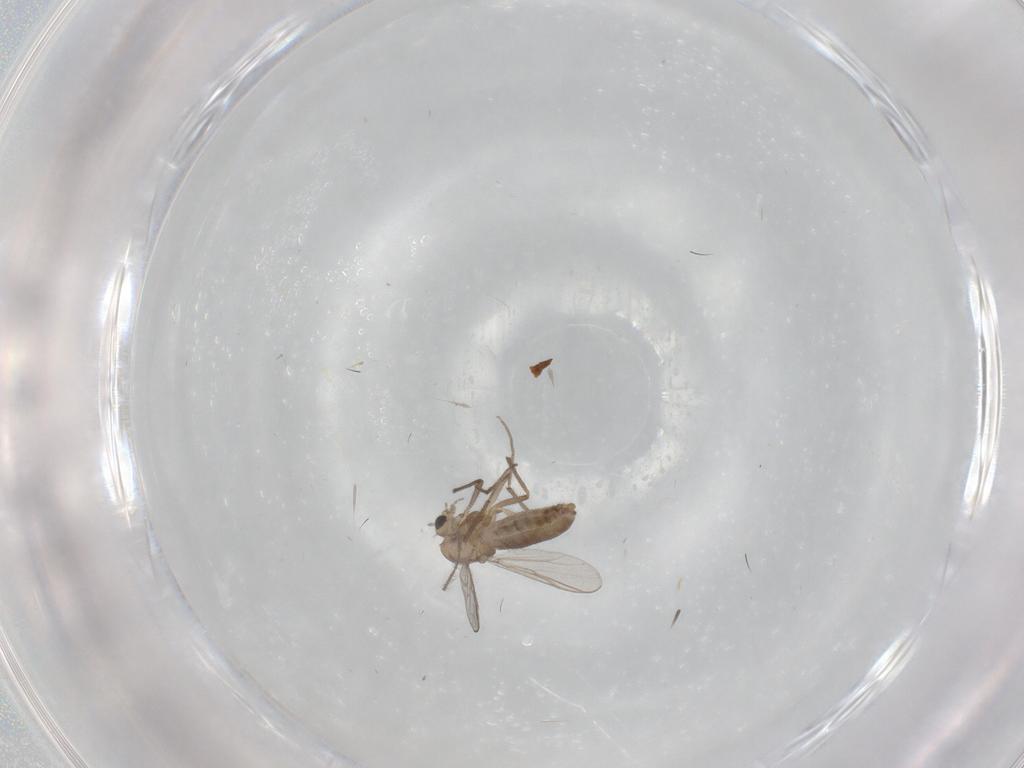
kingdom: Animalia
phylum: Arthropoda
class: Insecta
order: Diptera
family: Chironomidae
